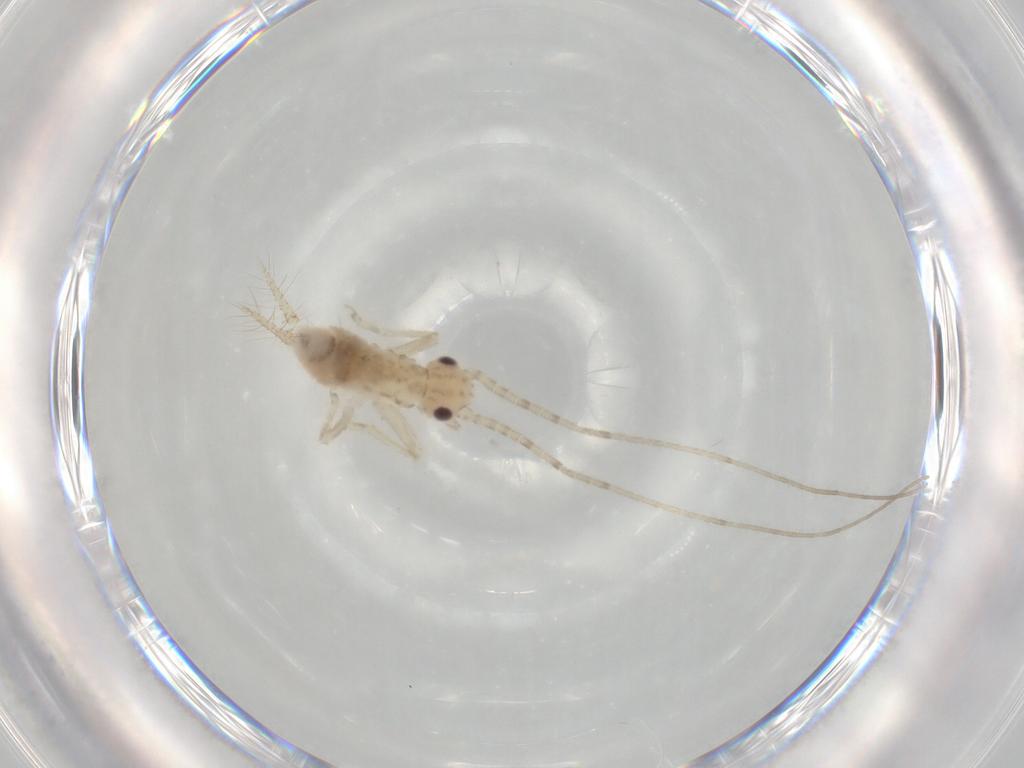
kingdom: Animalia
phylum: Arthropoda
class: Insecta
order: Orthoptera
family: Trigonidiidae
